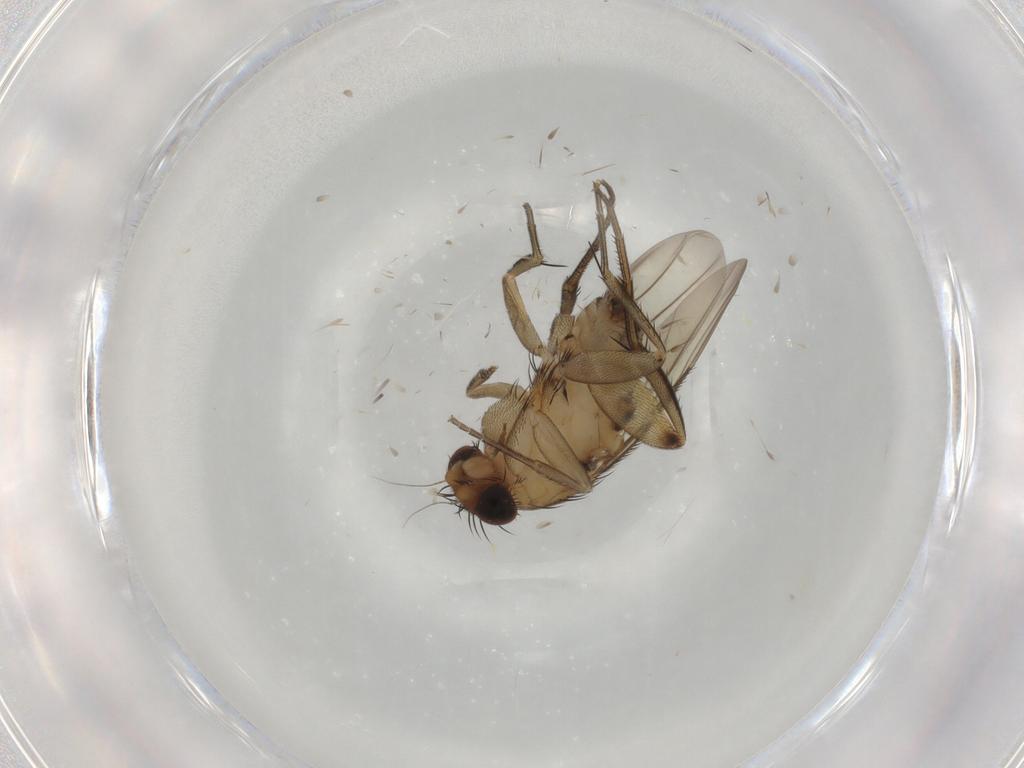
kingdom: Animalia
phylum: Arthropoda
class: Insecta
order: Diptera
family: Phoridae
